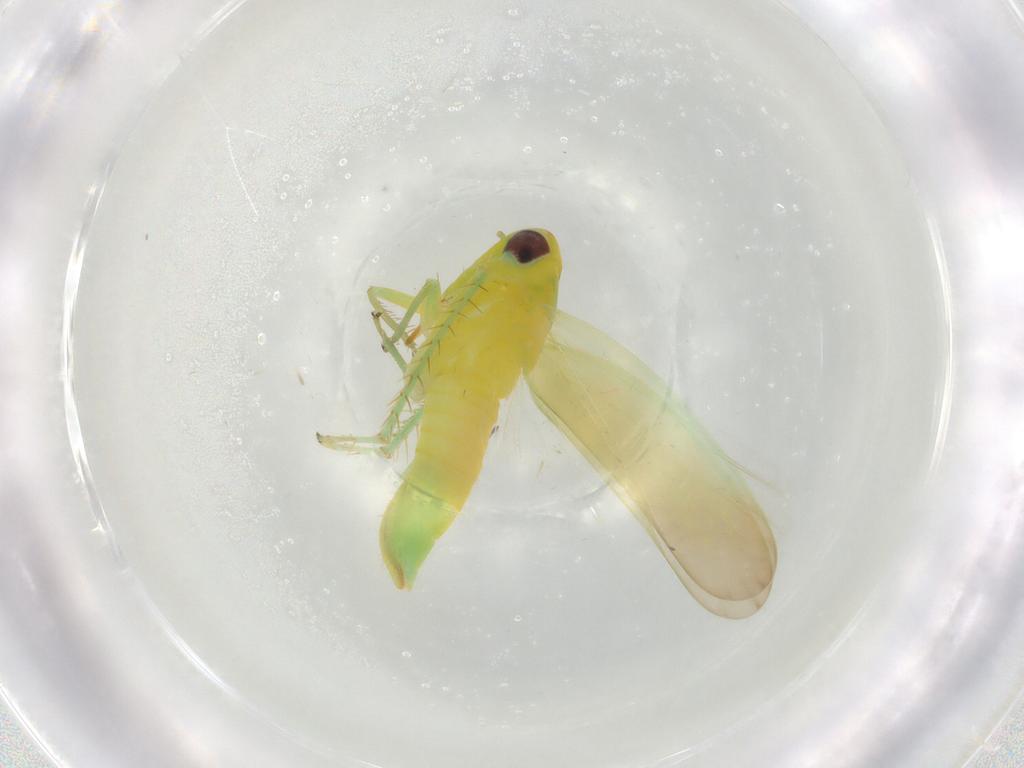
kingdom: Animalia
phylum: Arthropoda
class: Insecta
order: Hemiptera
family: Cicadellidae
